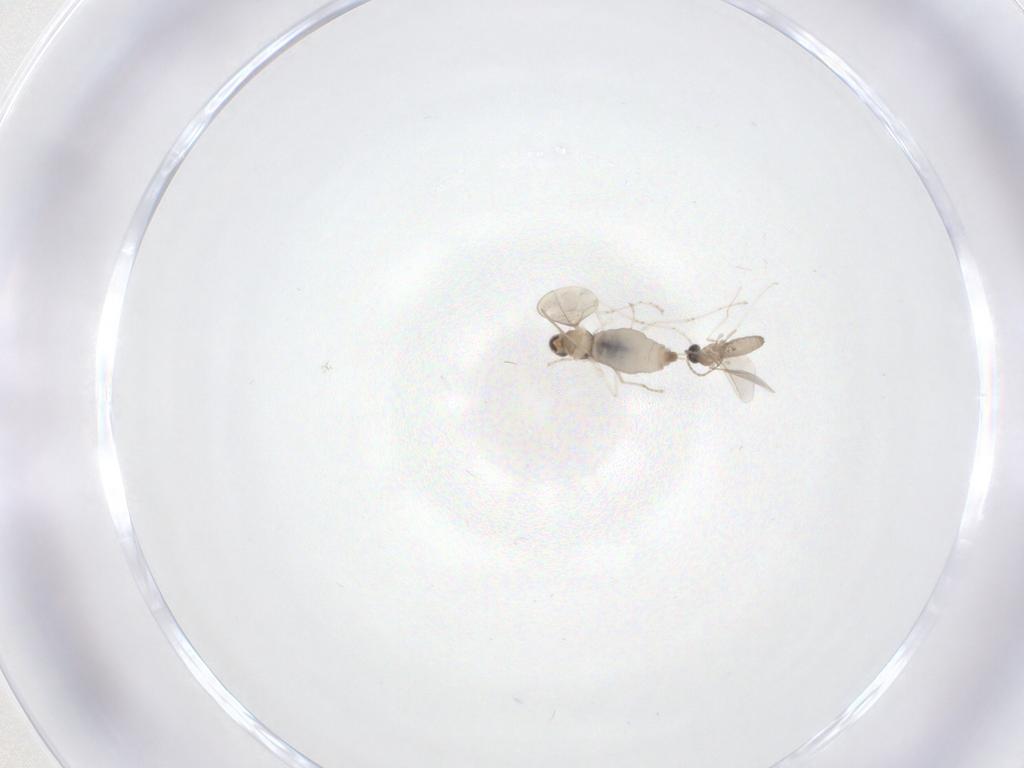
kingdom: Animalia
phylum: Arthropoda
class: Insecta
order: Diptera
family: Cecidomyiidae
